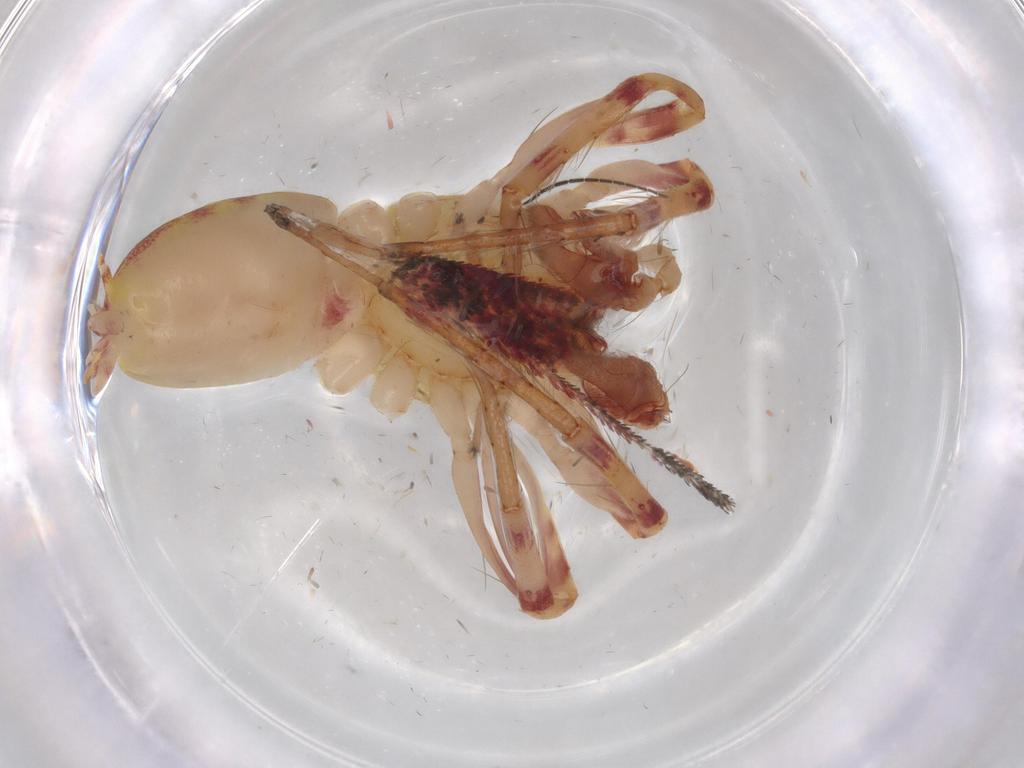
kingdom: Animalia
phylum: Arthropoda
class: Arachnida
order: Araneae
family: Anyphaenidae
